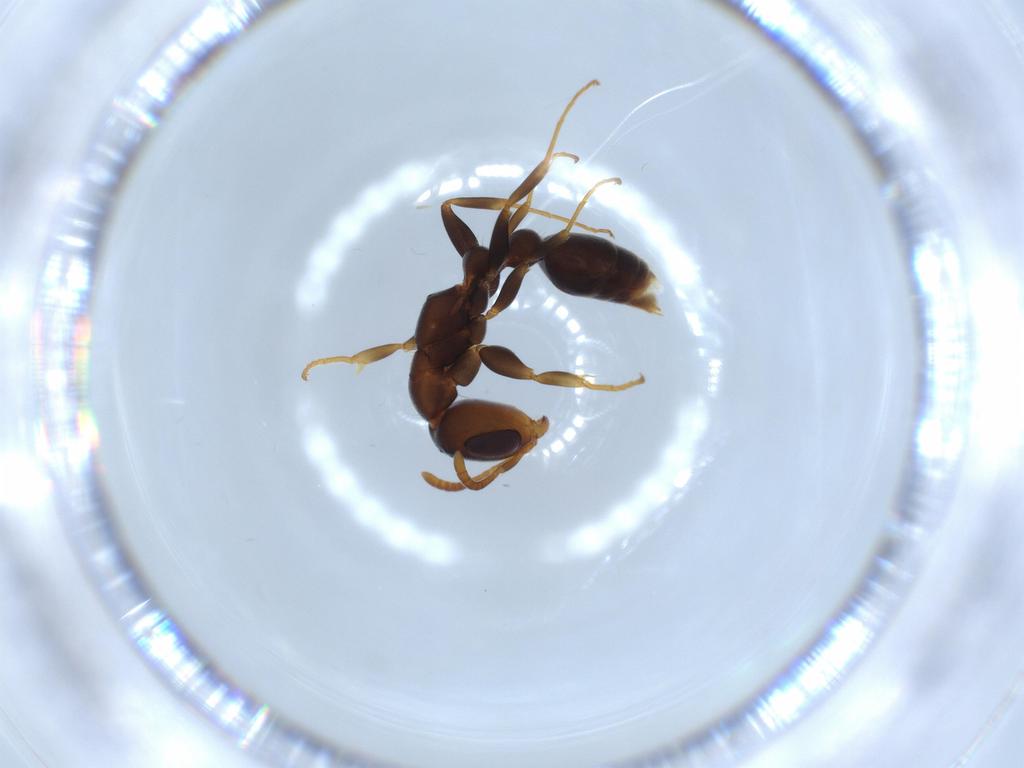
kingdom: Animalia
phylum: Arthropoda
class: Insecta
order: Hymenoptera
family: Formicidae
